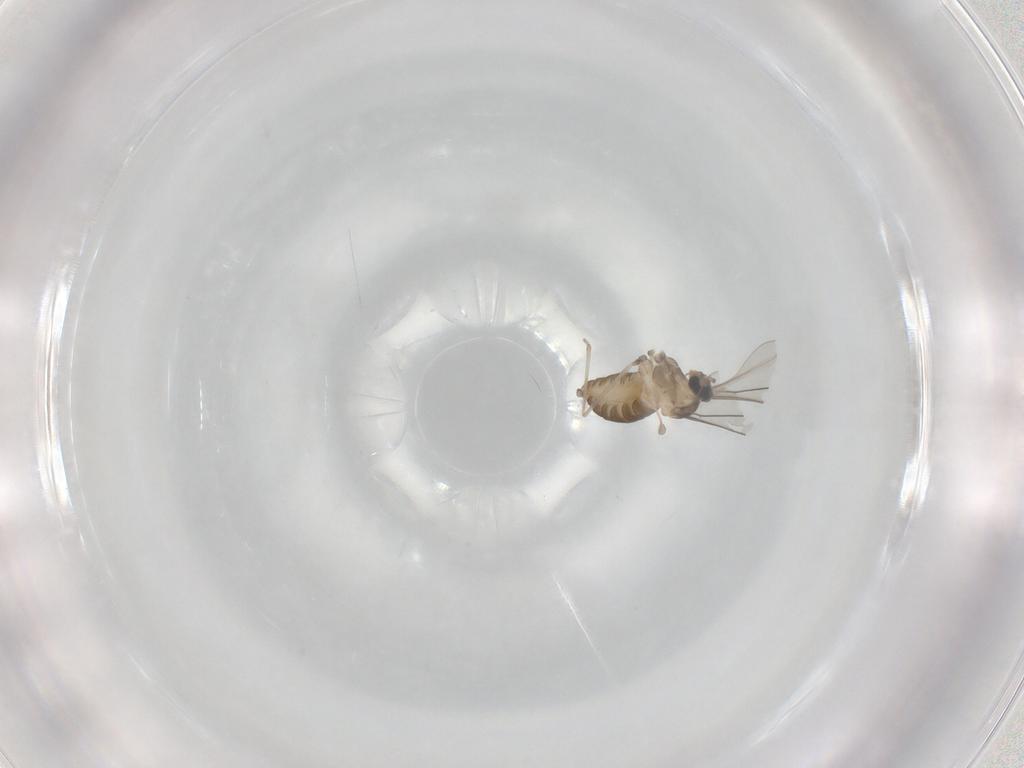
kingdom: Animalia
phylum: Arthropoda
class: Insecta
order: Diptera
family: Cecidomyiidae
